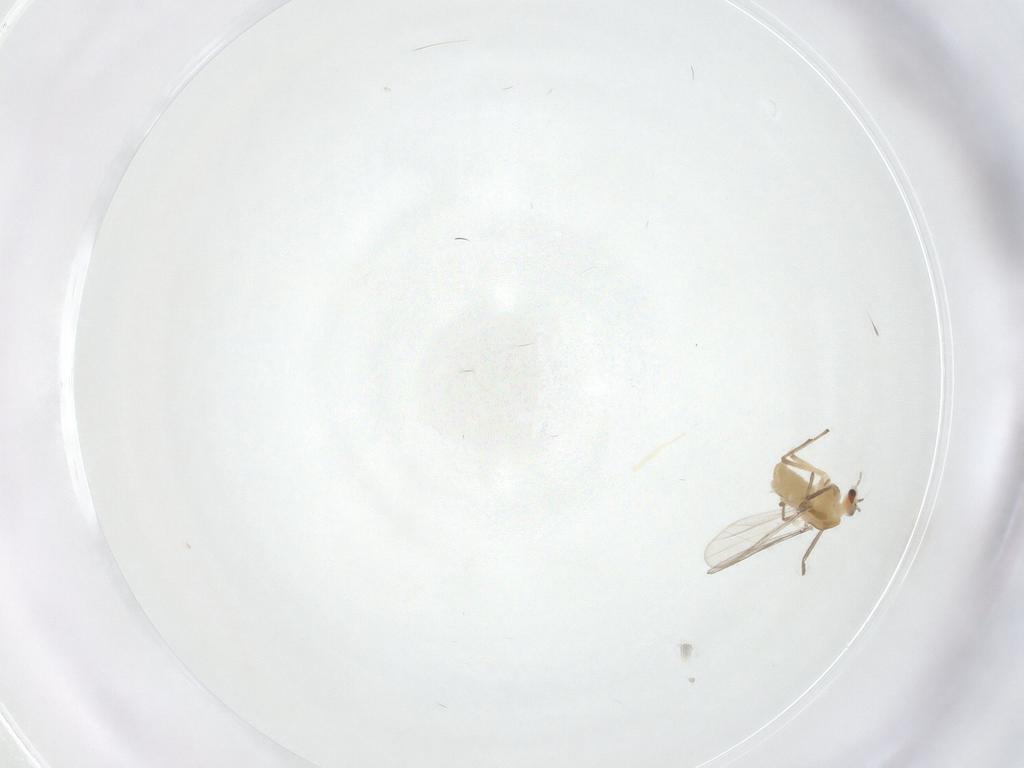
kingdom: Animalia
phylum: Arthropoda
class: Insecta
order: Diptera
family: Chironomidae
